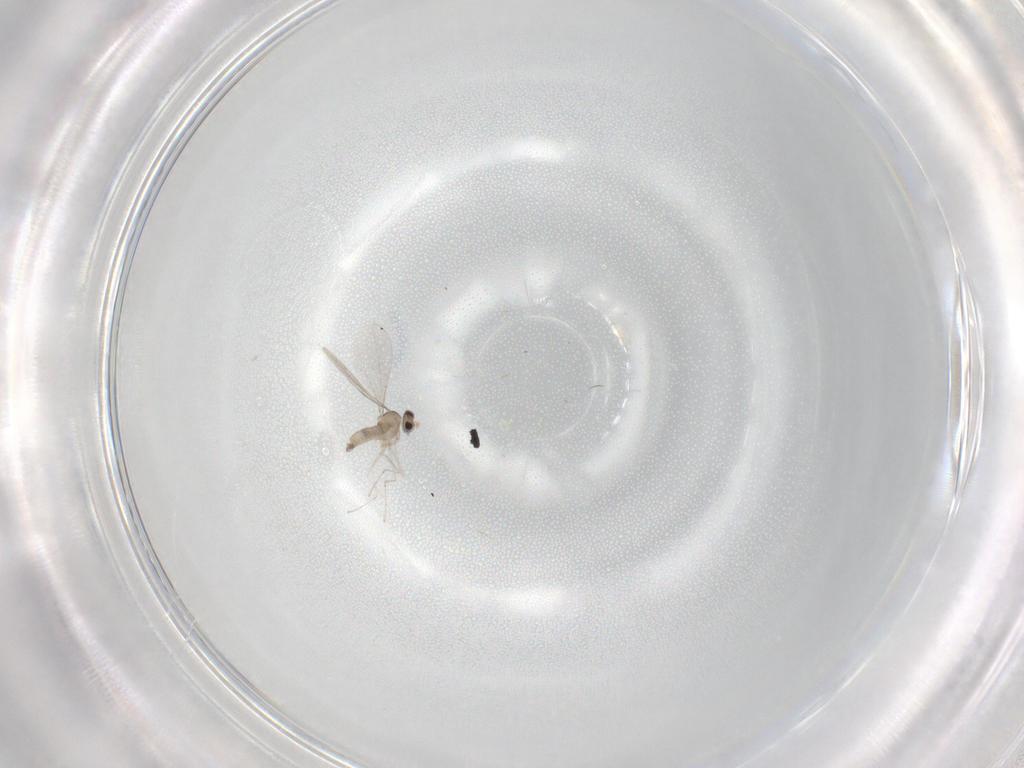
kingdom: Animalia
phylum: Arthropoda
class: Insecta
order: Diptera
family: Cecidomyiidae
